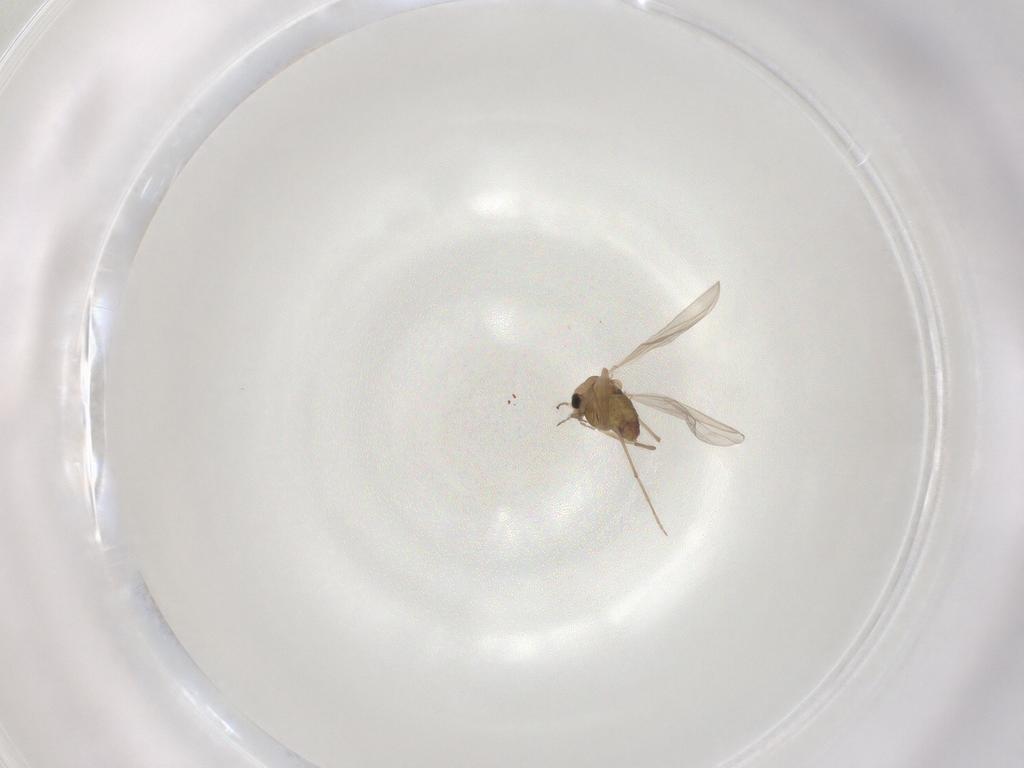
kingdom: Animalia
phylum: Arthropoda
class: Insecta
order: Diptera
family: Chironomidae
